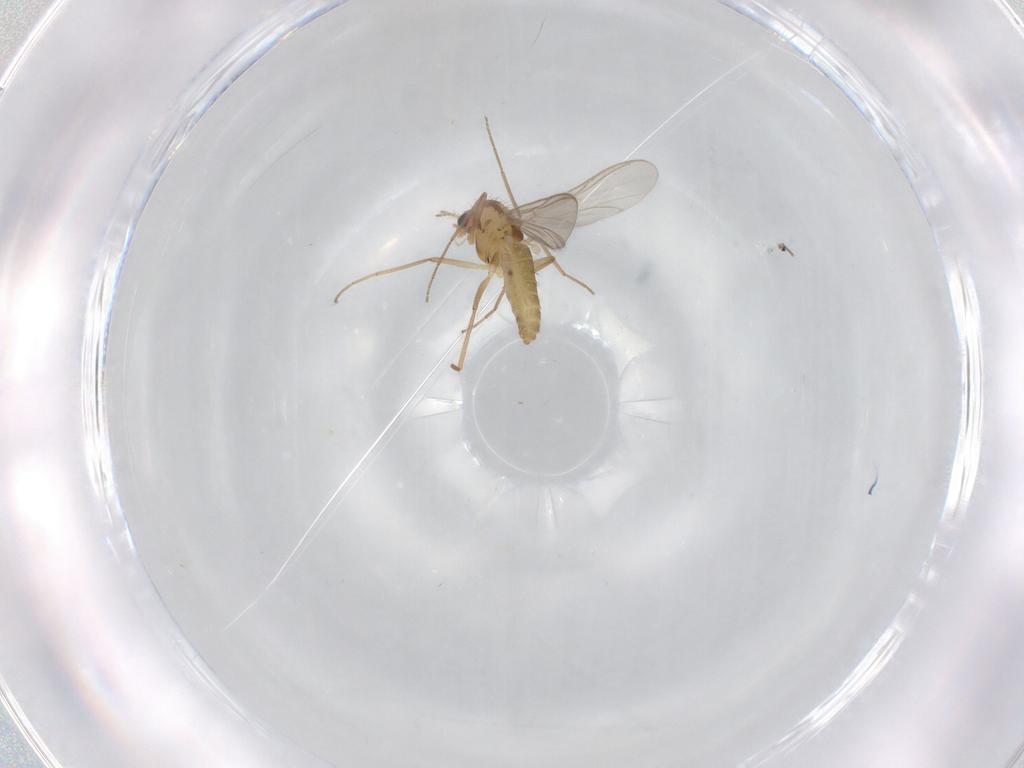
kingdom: Animalia
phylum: Arthropoda
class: Insecta
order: Diptera
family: Chironomidae
